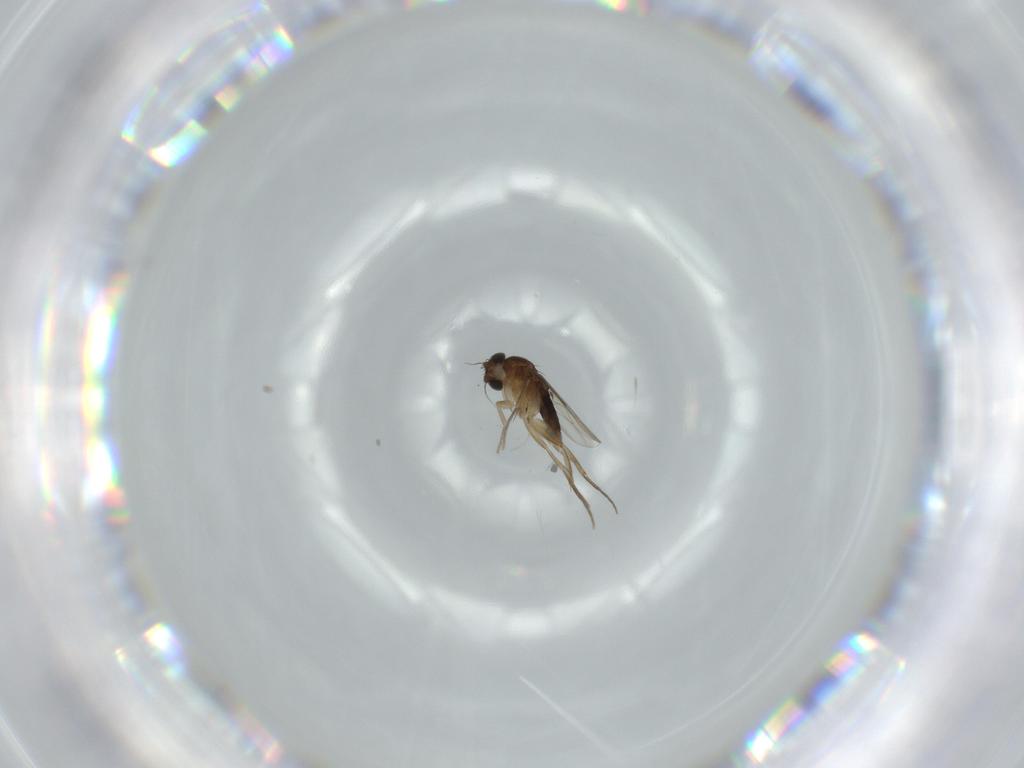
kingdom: Animalia
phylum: Arthropoda
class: Insecta
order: Diptera
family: Phoridae
